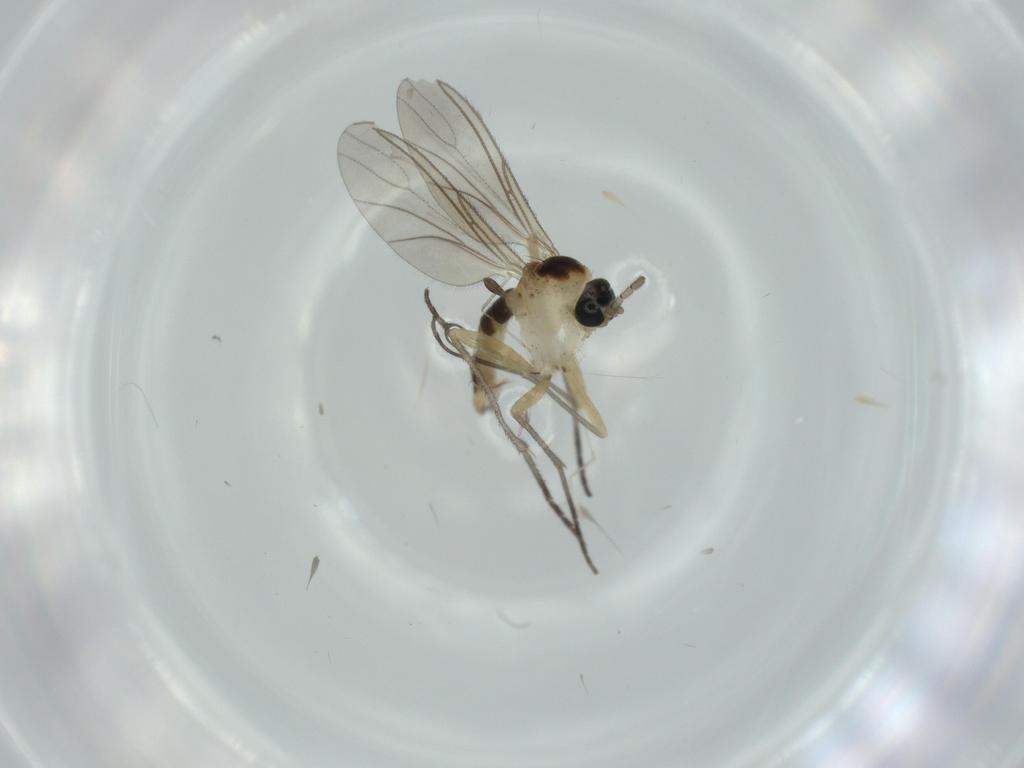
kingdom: Animalia
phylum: Arthropoda
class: Insecta
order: Diptera
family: Sciaridae
